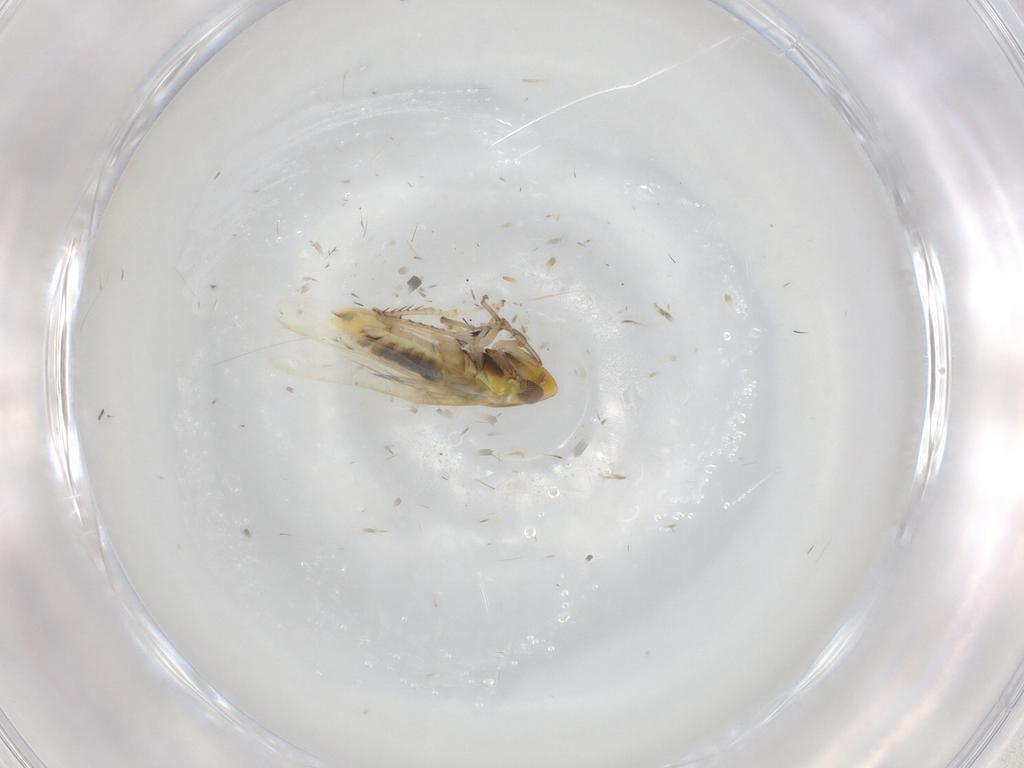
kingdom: Animalia
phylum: Arthropoda
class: Insecta
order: Hemiptera
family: Cicadellidae
